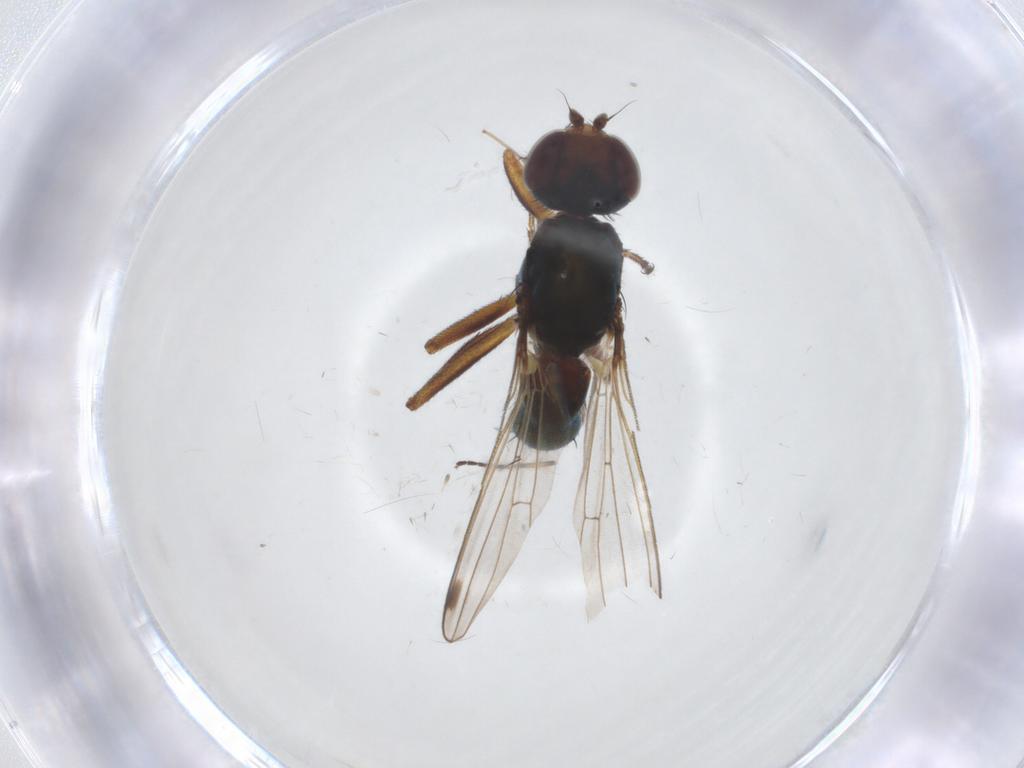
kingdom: Animalia
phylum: Arthropoda
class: Insecta
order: Diptera
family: Sepsidae
